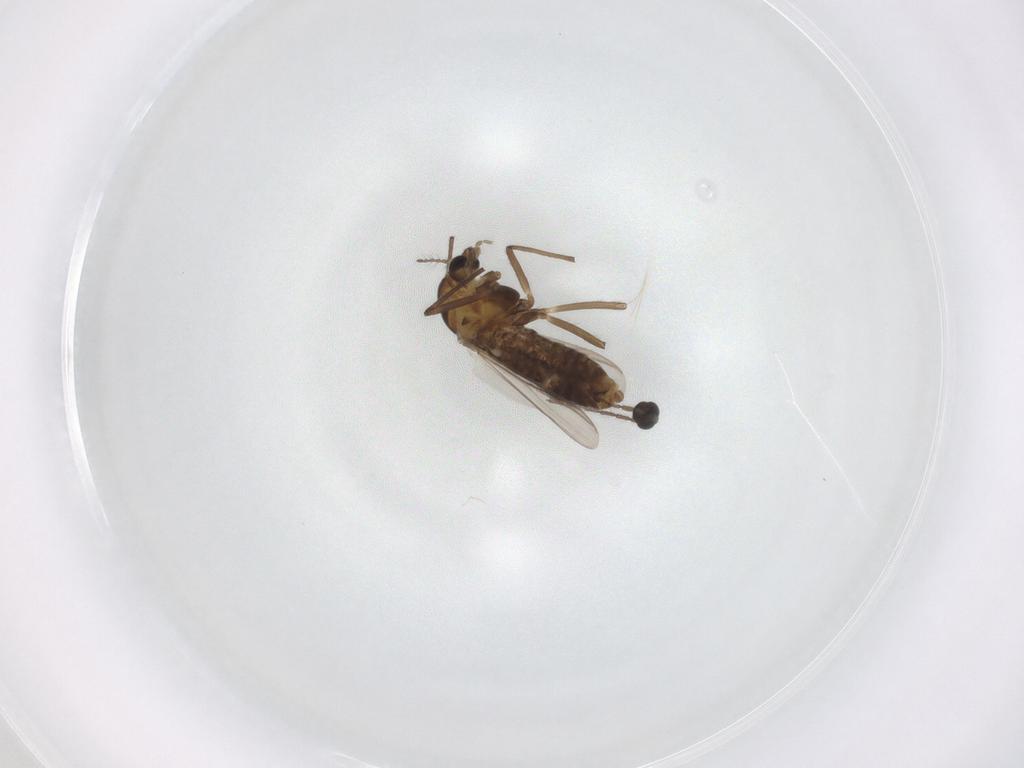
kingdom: Animalia
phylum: Arthropoda
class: Insecta
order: Diptera
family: Chironomidae
